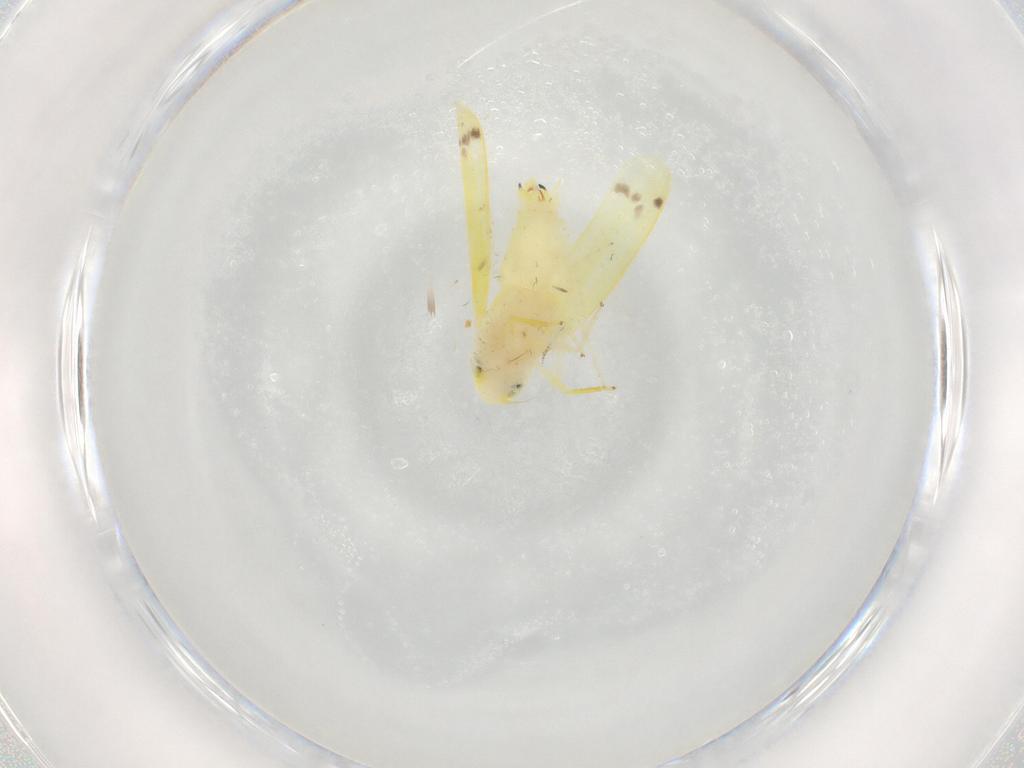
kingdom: Animalia
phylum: Arthropoda
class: Insecta
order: Hemiptera
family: Cicadellidae
